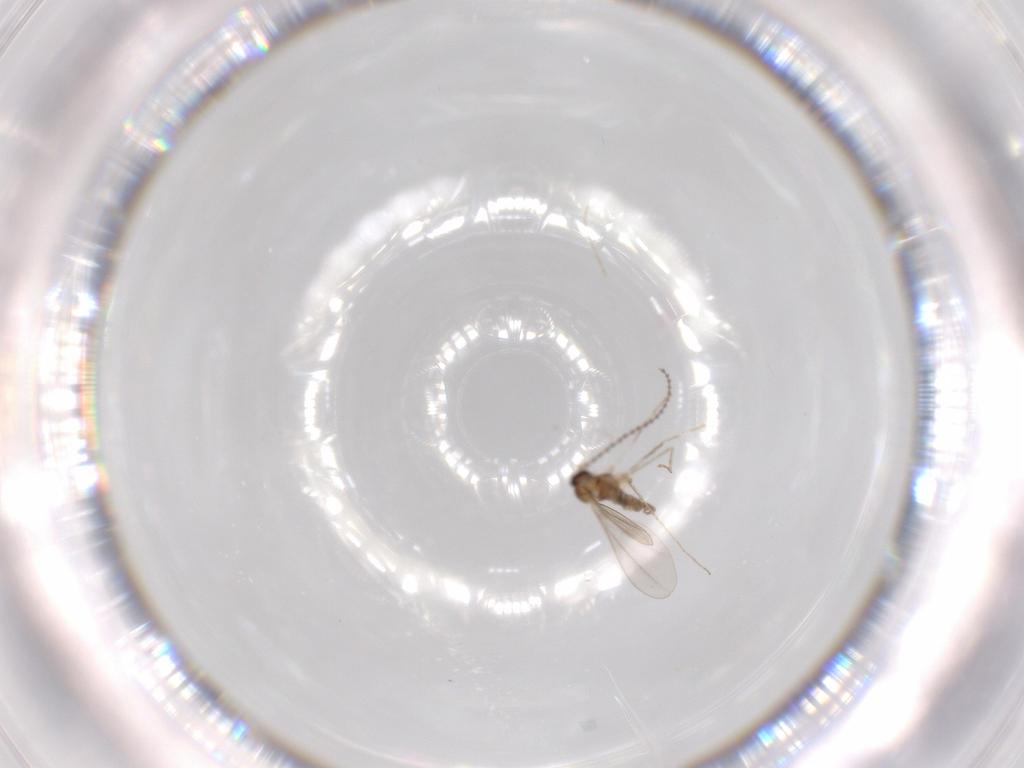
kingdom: Animalia
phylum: Arthropoda
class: Insecta
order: Diptera
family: Cecidomyiidae
